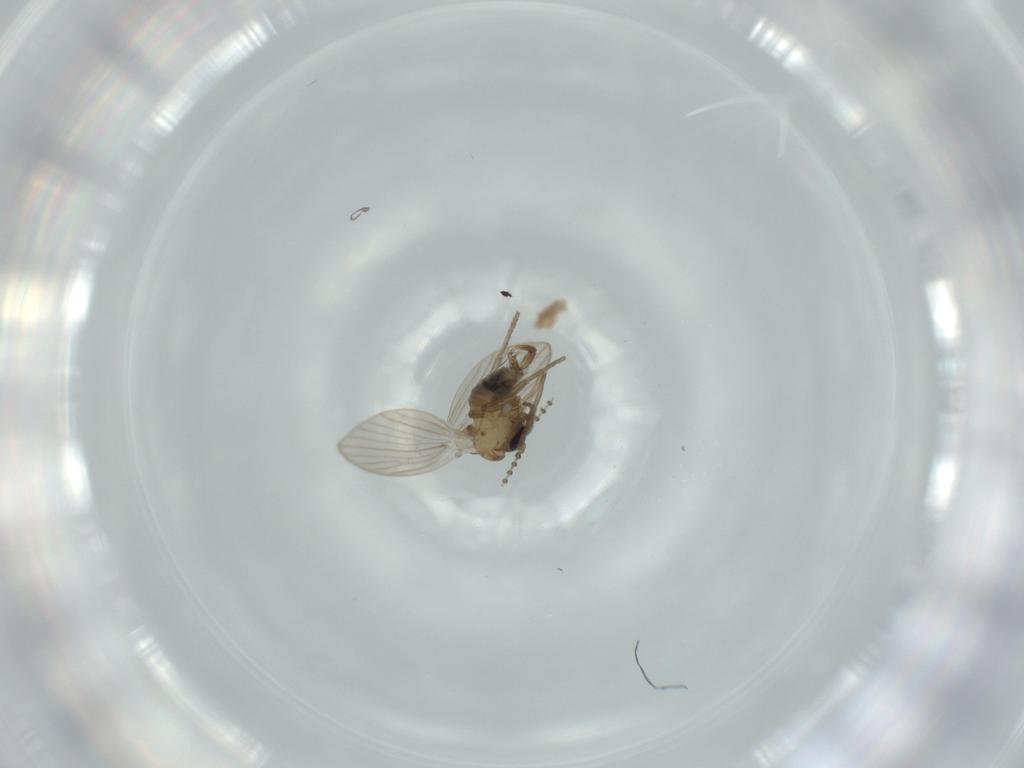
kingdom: Animalia
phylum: Arthropoda
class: Insecta
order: Diptera
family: Psychodidae
